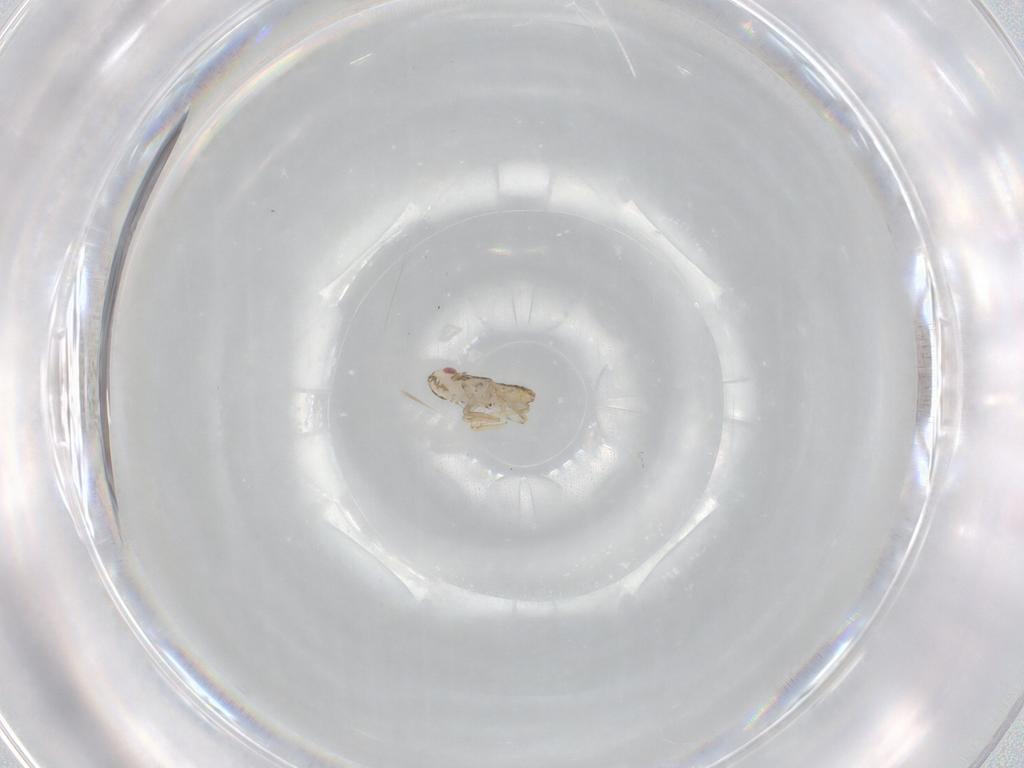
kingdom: Animalia
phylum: Arthropoda
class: Insecta
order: Hemiptera
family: Delphacidae
